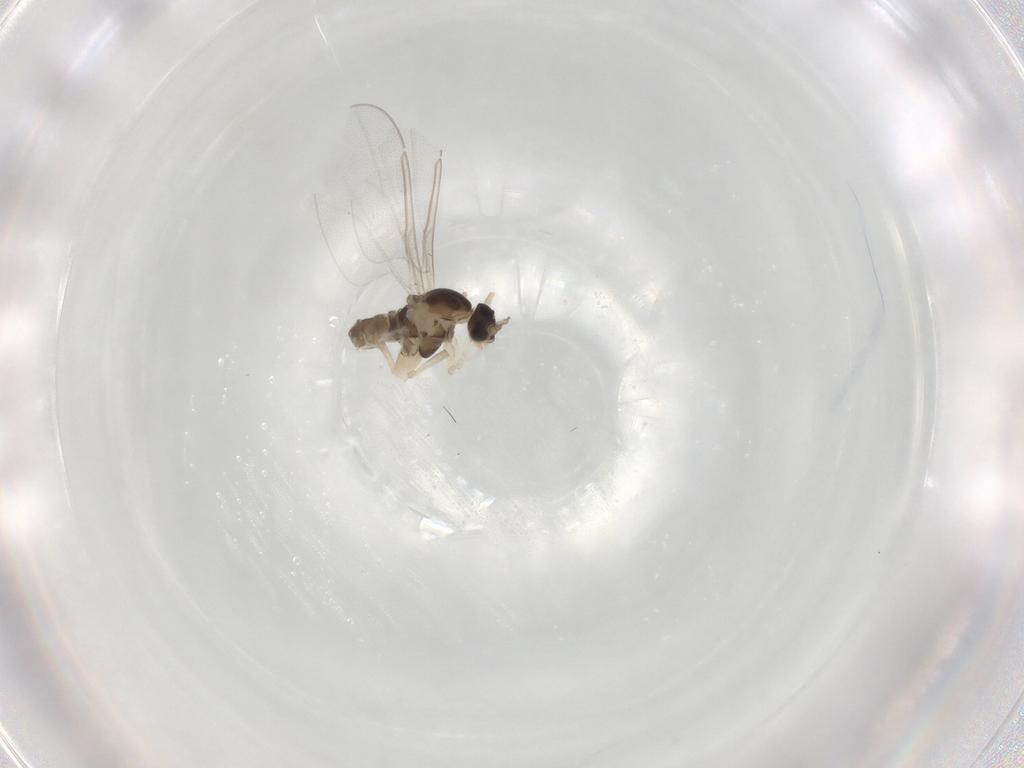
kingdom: Animalia
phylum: Arthropoda
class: Insecta
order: Diptera
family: Cecidomyiidae
